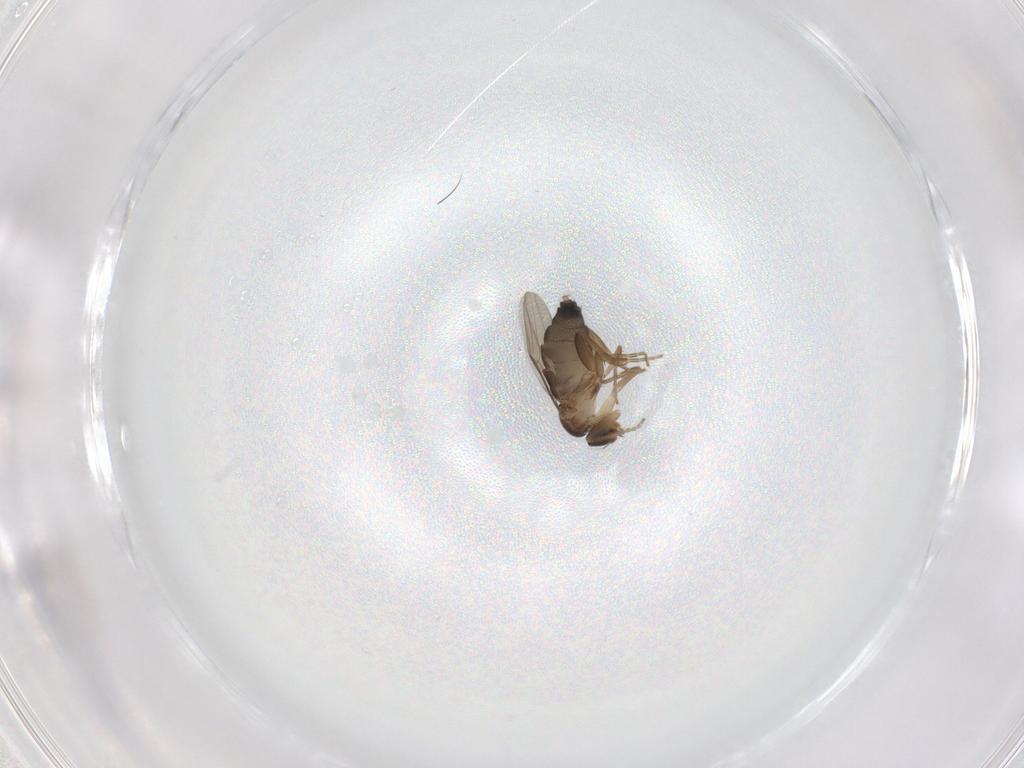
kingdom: Animalia
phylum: Arthropoda
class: Insecta
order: Diptera
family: Phoridae
